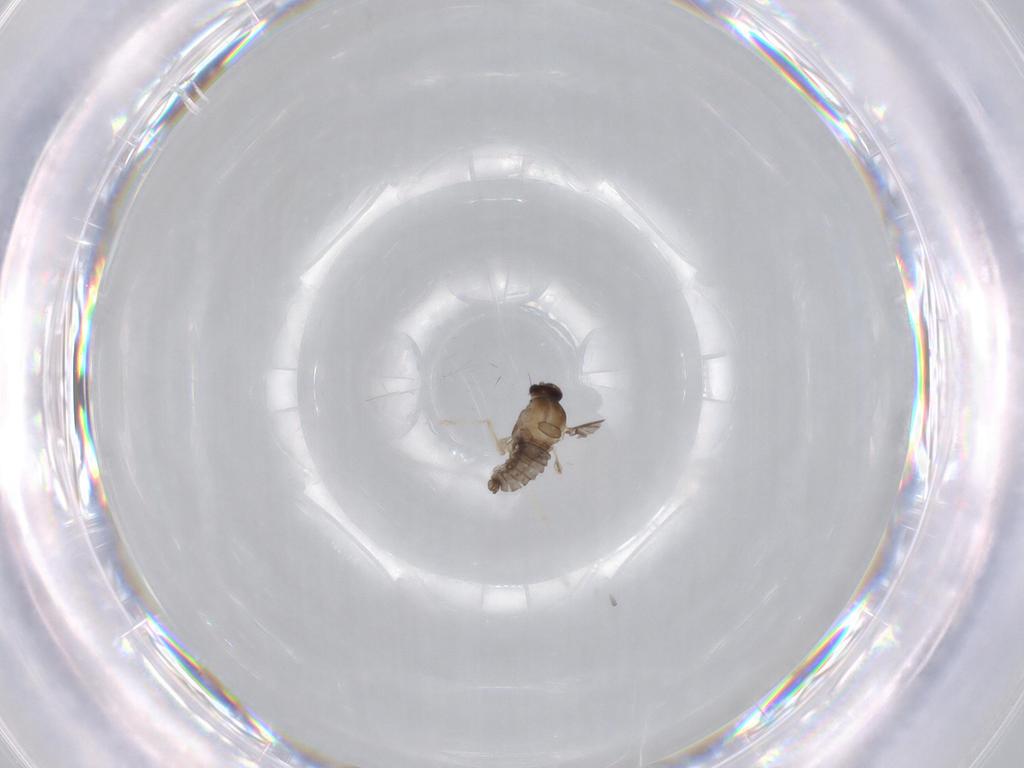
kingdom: Animalia
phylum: Arthropoda
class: Insecta
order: Diptera
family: Cecidomyiidae
